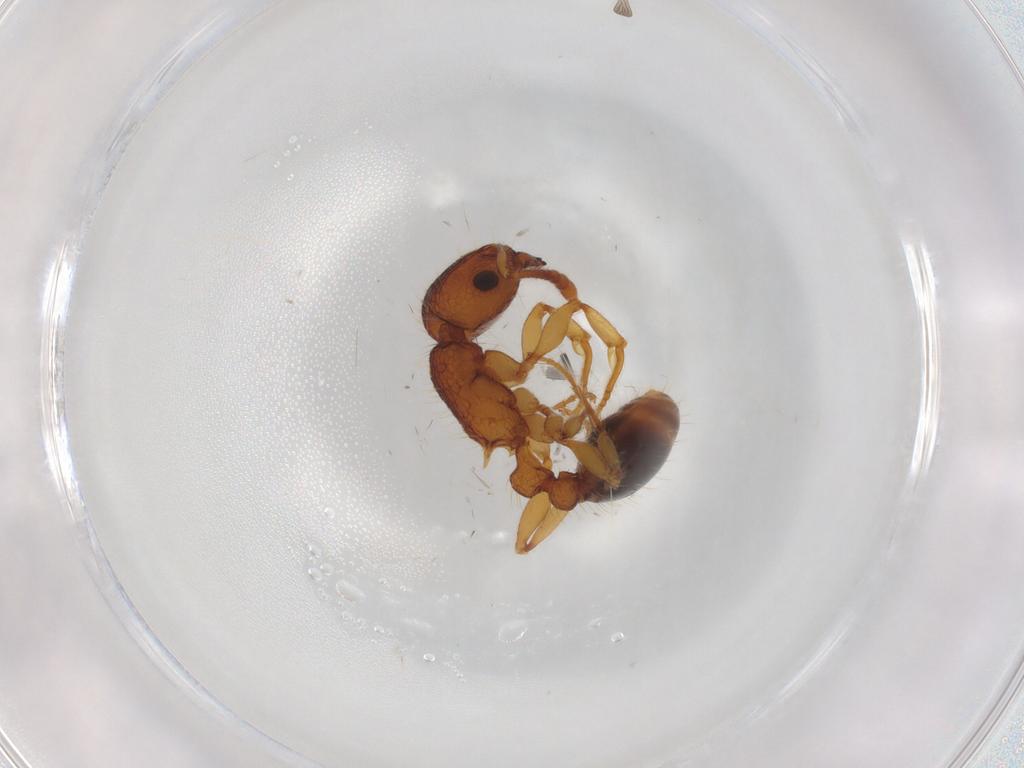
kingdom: Animalia
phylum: Arthropoda
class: Insecta
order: Hymenoptera
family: Formicidae
